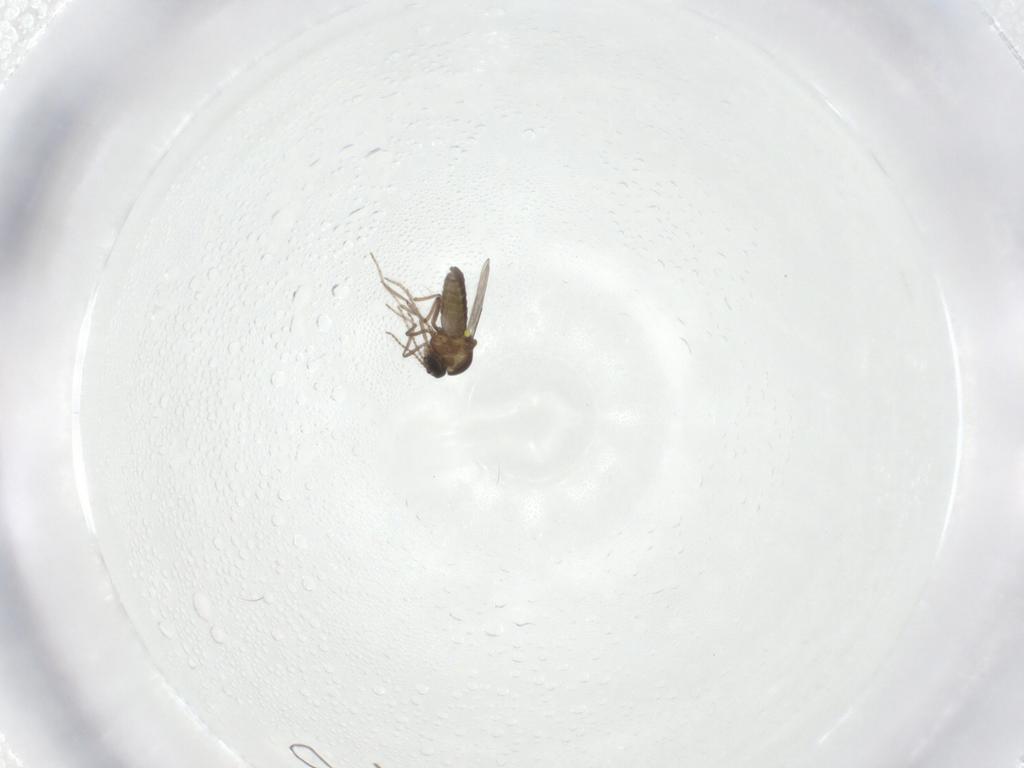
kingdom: Animalia
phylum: Arthropoda
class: Insecta
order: Diptera
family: Ceratopogonidae
